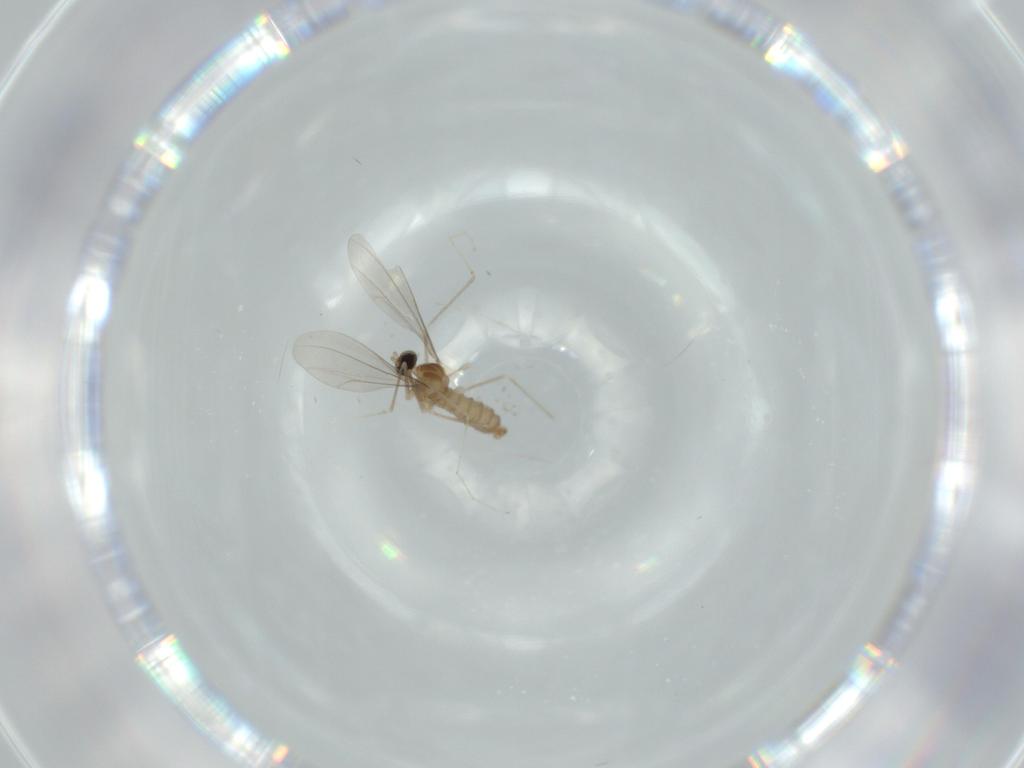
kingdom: Animalia
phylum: Arthropoda
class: Insecta
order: Diptera
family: Cecidomyiidae
